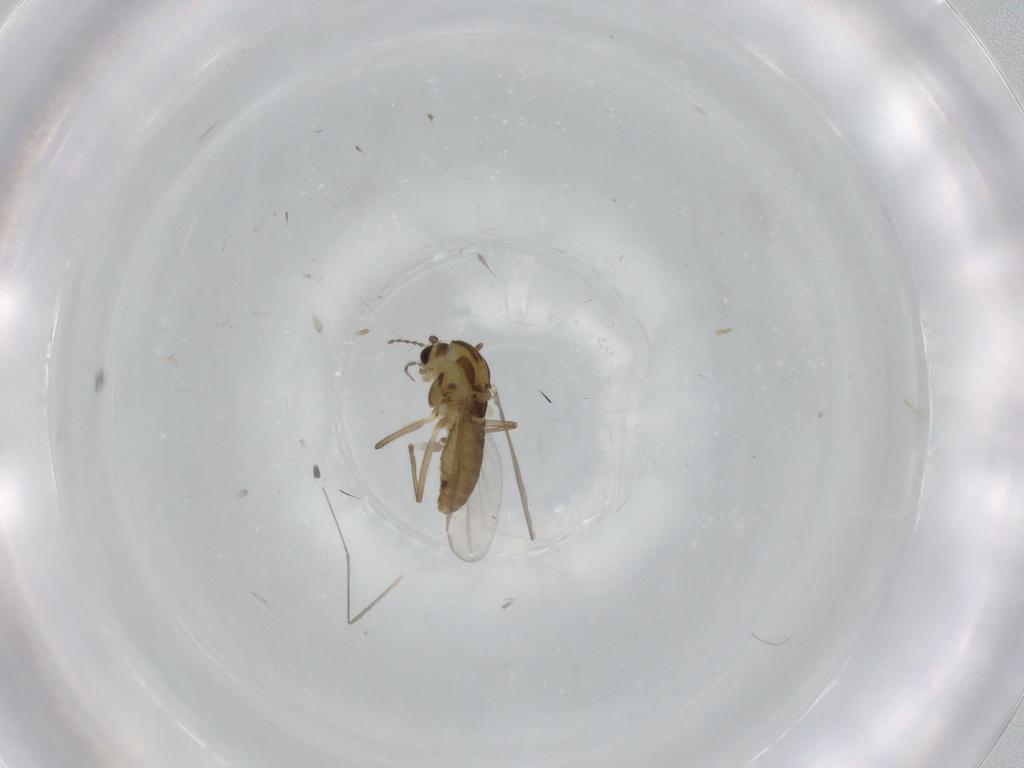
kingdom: Animalia
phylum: Arthropoda
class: Insecta
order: Diptera
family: Chironomidae
